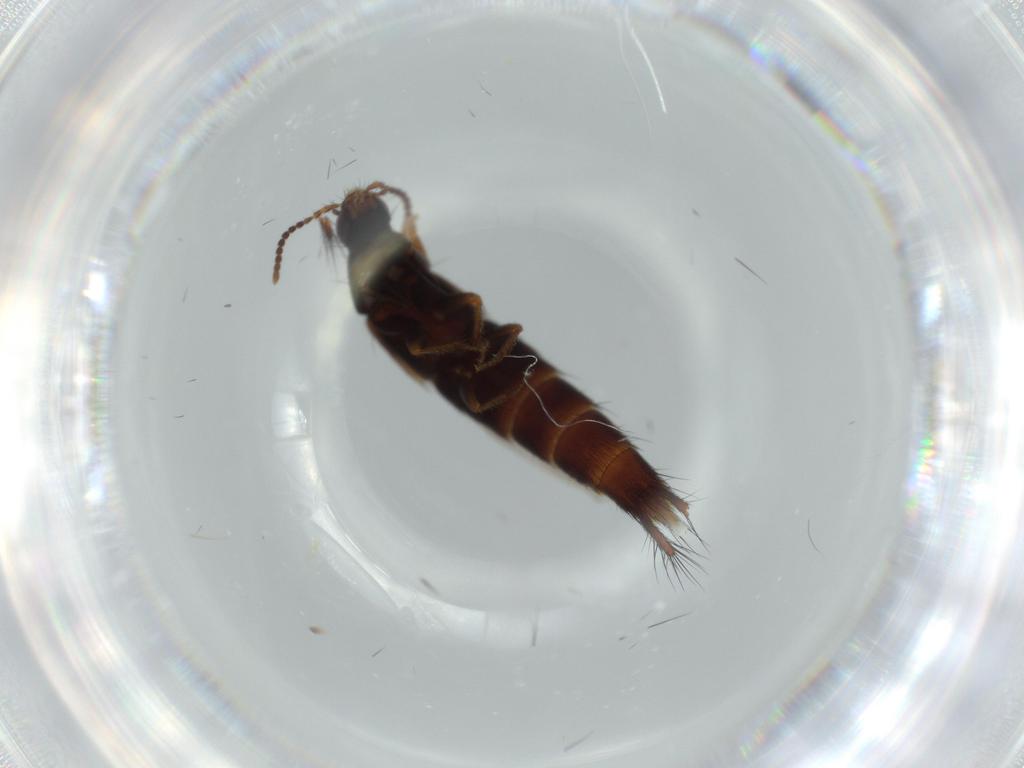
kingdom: Animalia
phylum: Arthropoda
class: Insecta
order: Coleoptera
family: Staphylinidae
